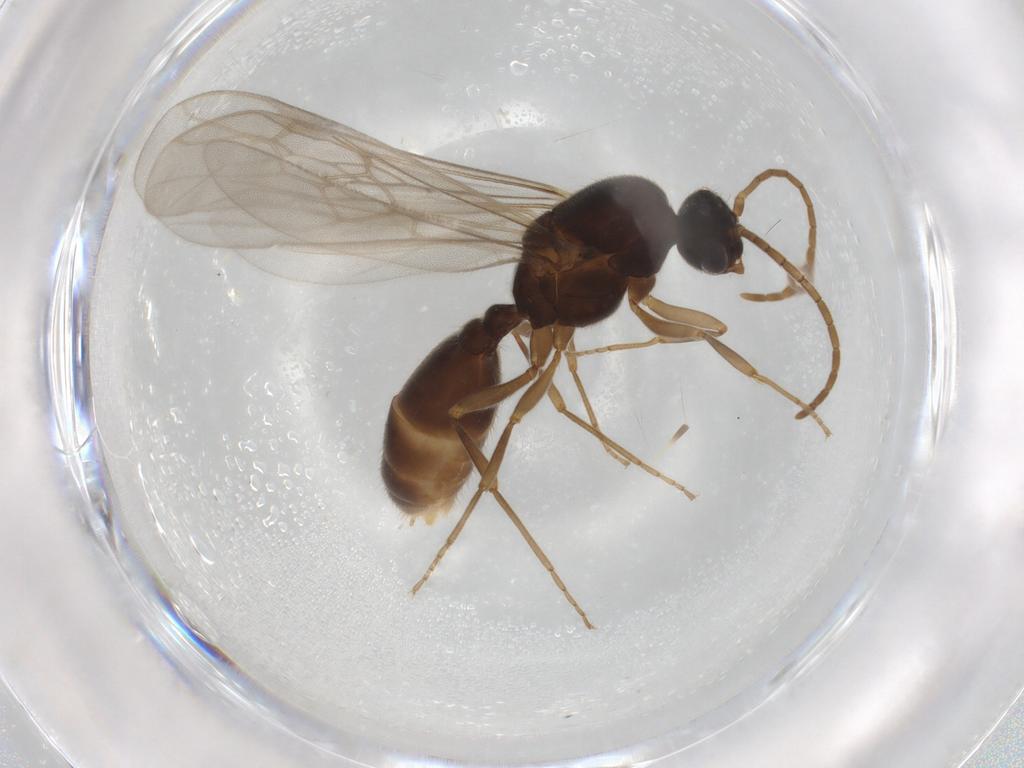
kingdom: Animalia
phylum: Arthropoda
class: Insecta
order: Hymenoptera
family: Formicidae
